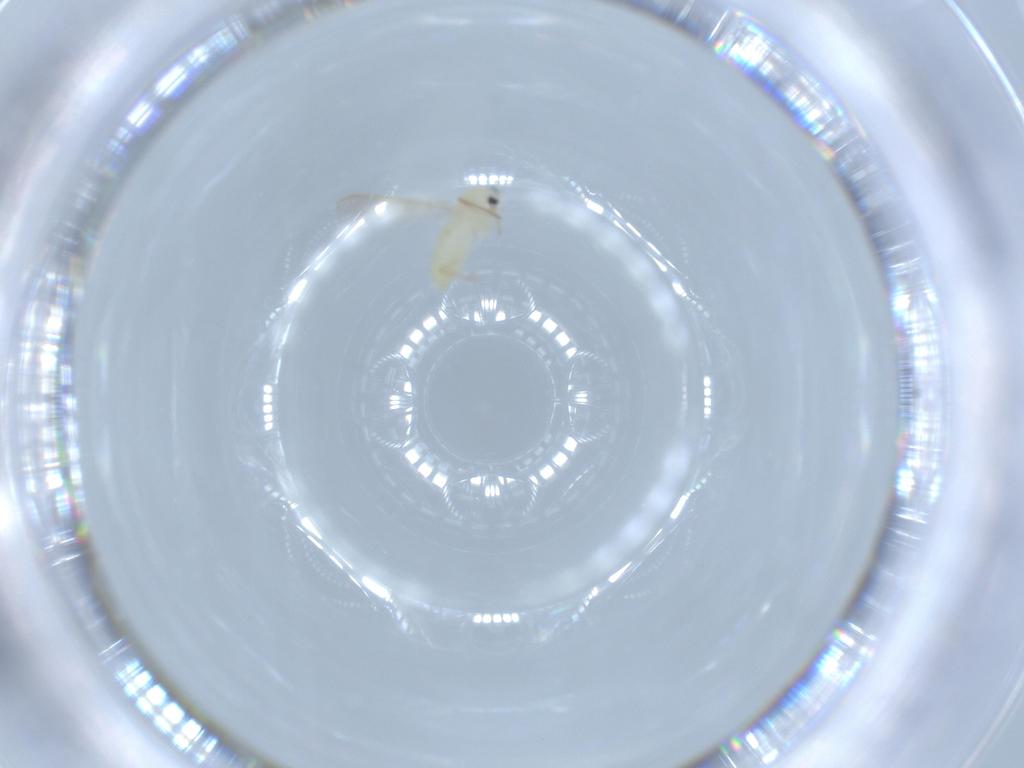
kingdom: Animalia
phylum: Arthropoda
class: Insecta
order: Diptera
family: Chironomidae
